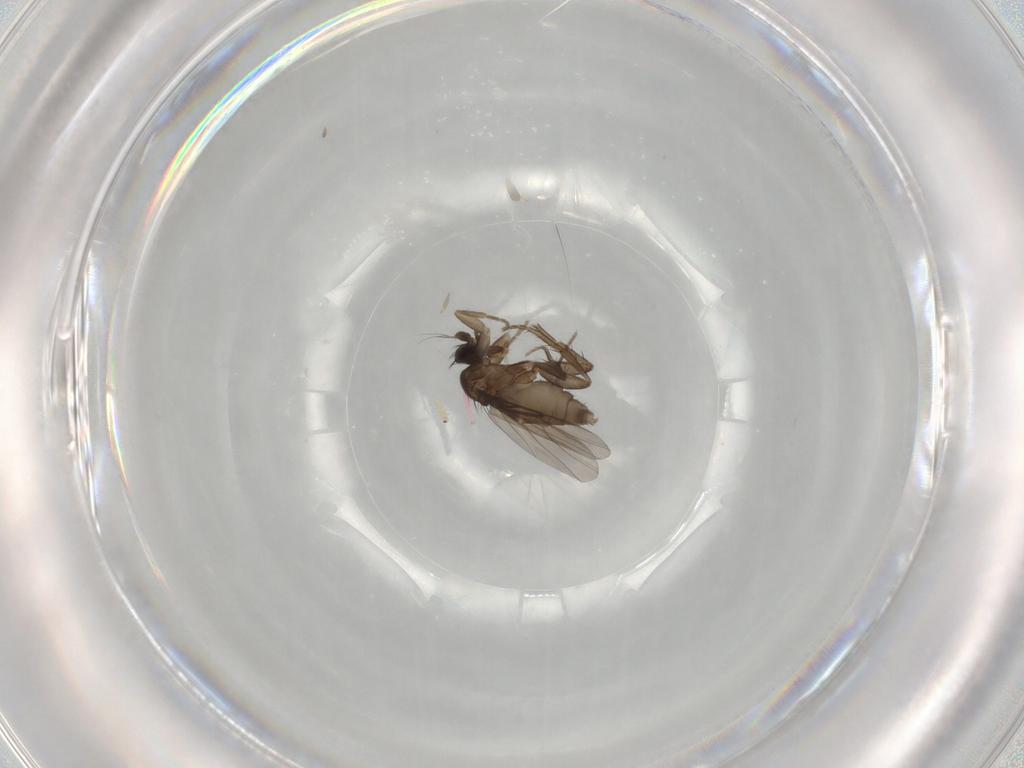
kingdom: Animalia
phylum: Arthropoda
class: Insecta
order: Diptera
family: Phoridae
